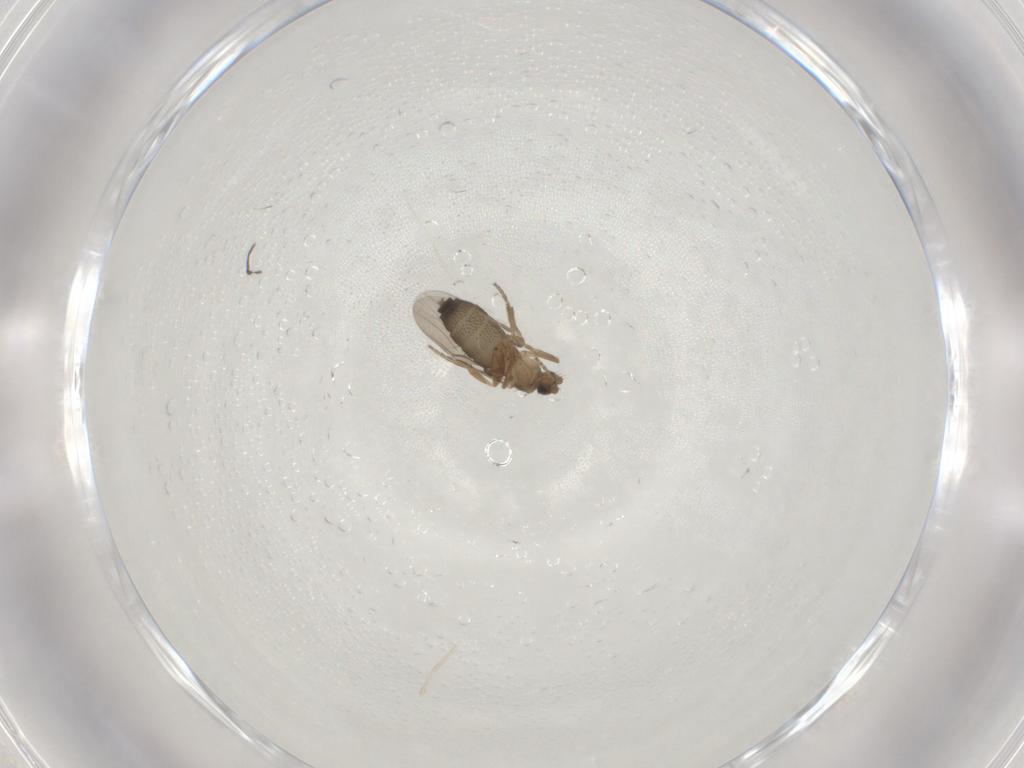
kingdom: Animalia
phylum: Arthropoda
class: Insecta
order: Diptera
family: Phoridae
